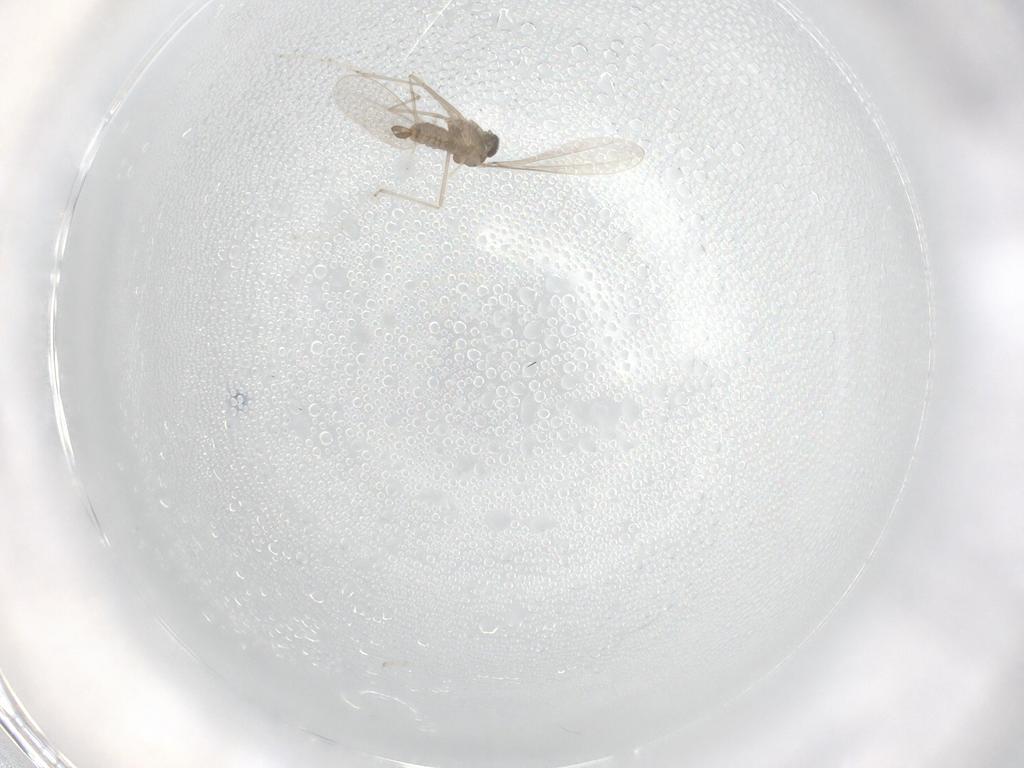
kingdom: Animalia
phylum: Arthropoda
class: Insecta
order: Diptera
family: Cecidomyiidae
